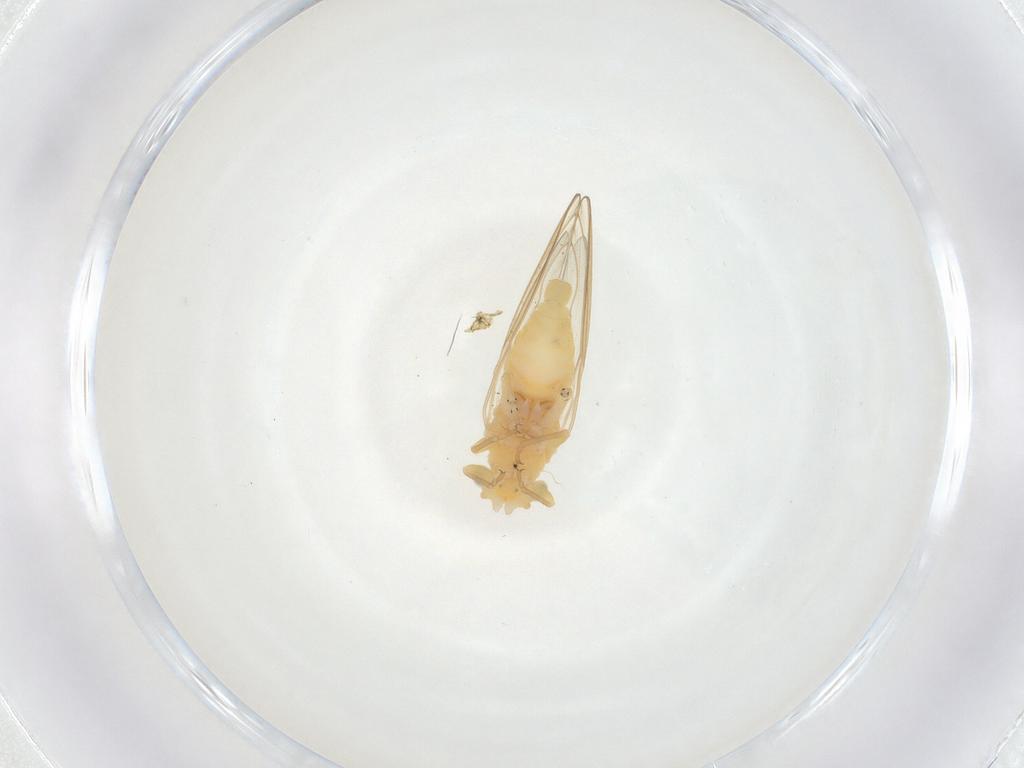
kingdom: Animalia
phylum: Arthropoda
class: Insecta
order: Hemiptera
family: Psyllidae
